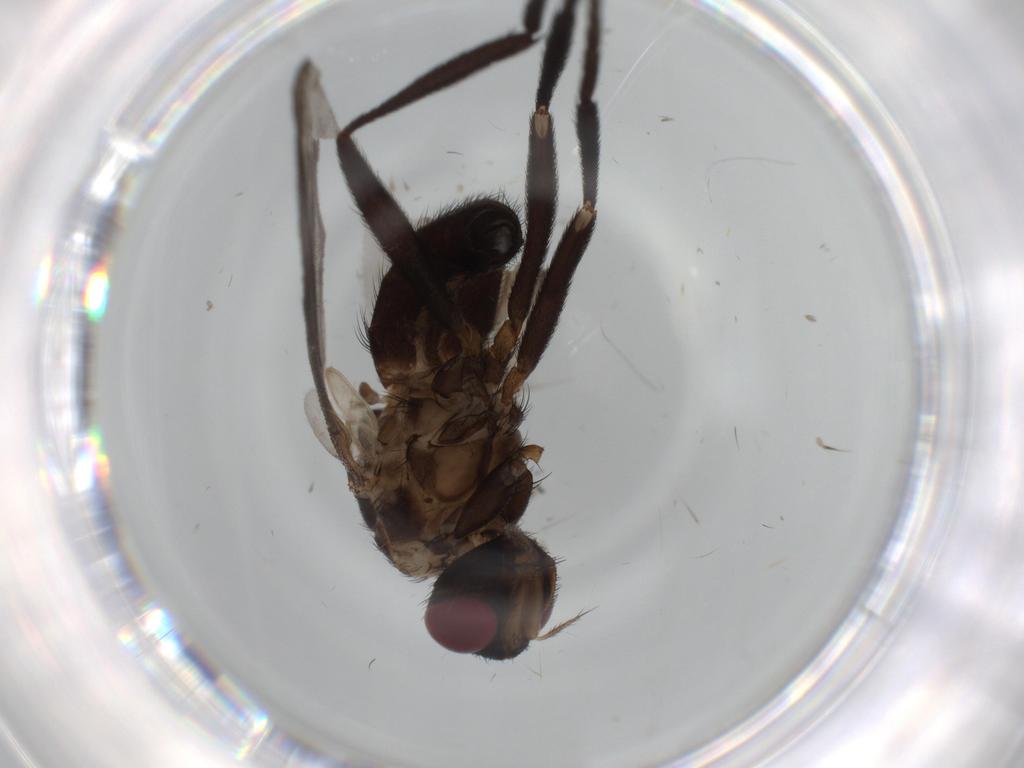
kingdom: Animalia
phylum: Arthropoda
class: Insecta
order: Diptera
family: Calliphoridae
